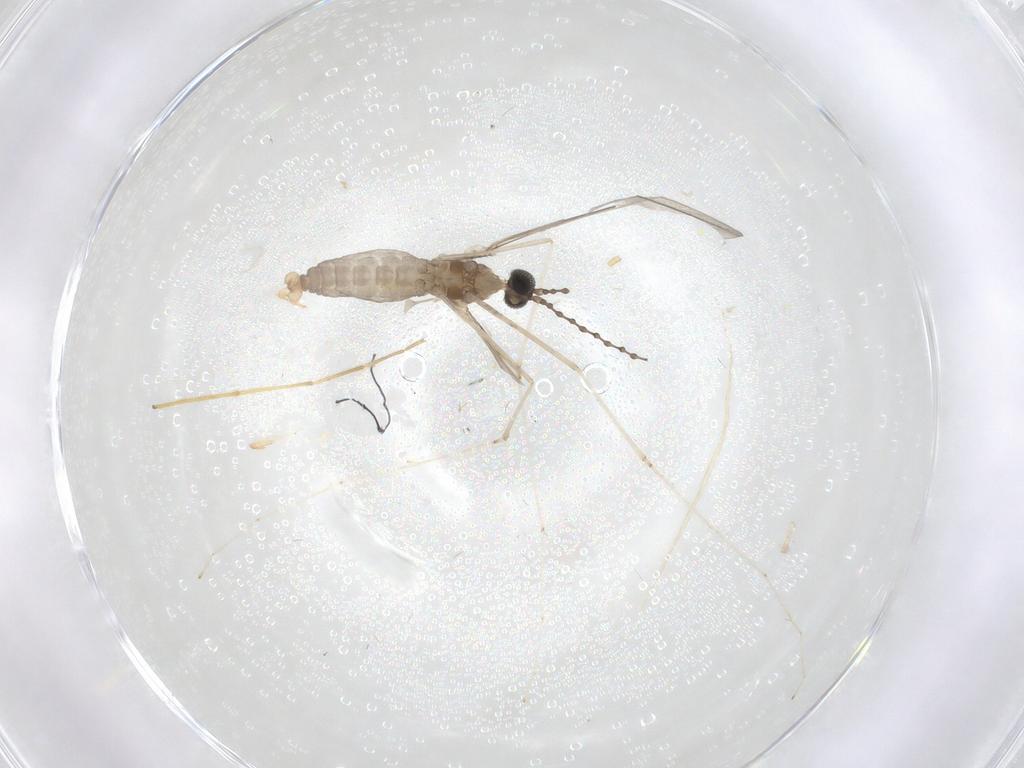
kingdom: Animalia
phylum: Arthropoda
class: Insecta
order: Diptera
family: Cecidomyiidae
